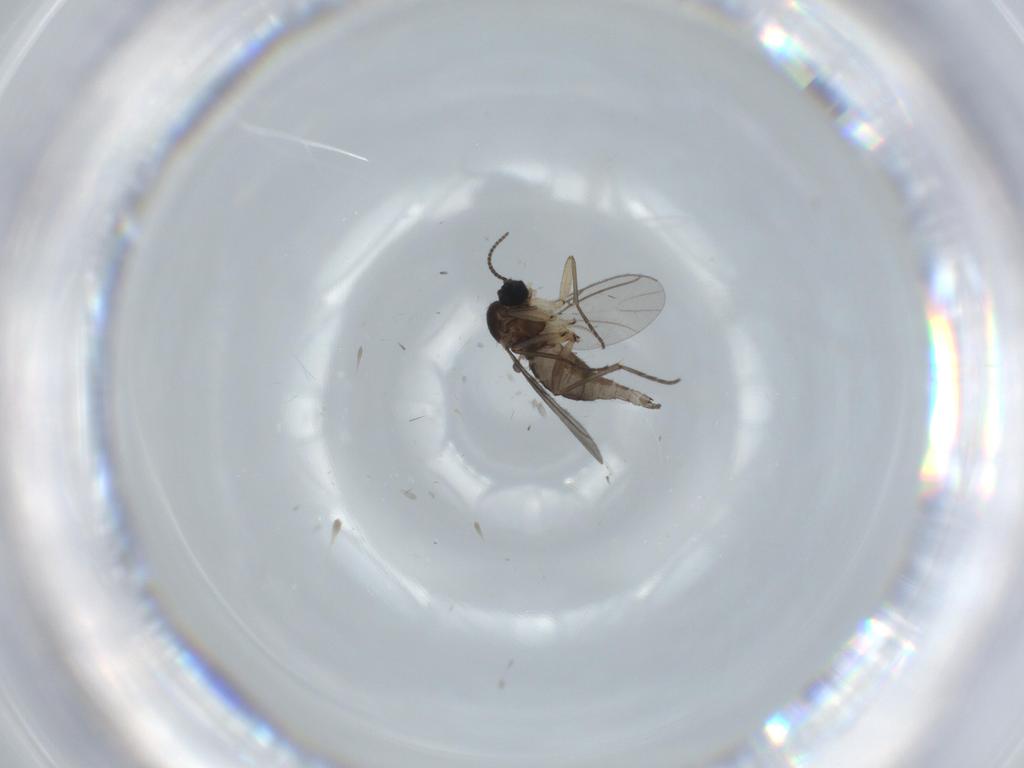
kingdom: Animalia
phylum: Arthropoda
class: Insecta
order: Diptera
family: Sciaridae
